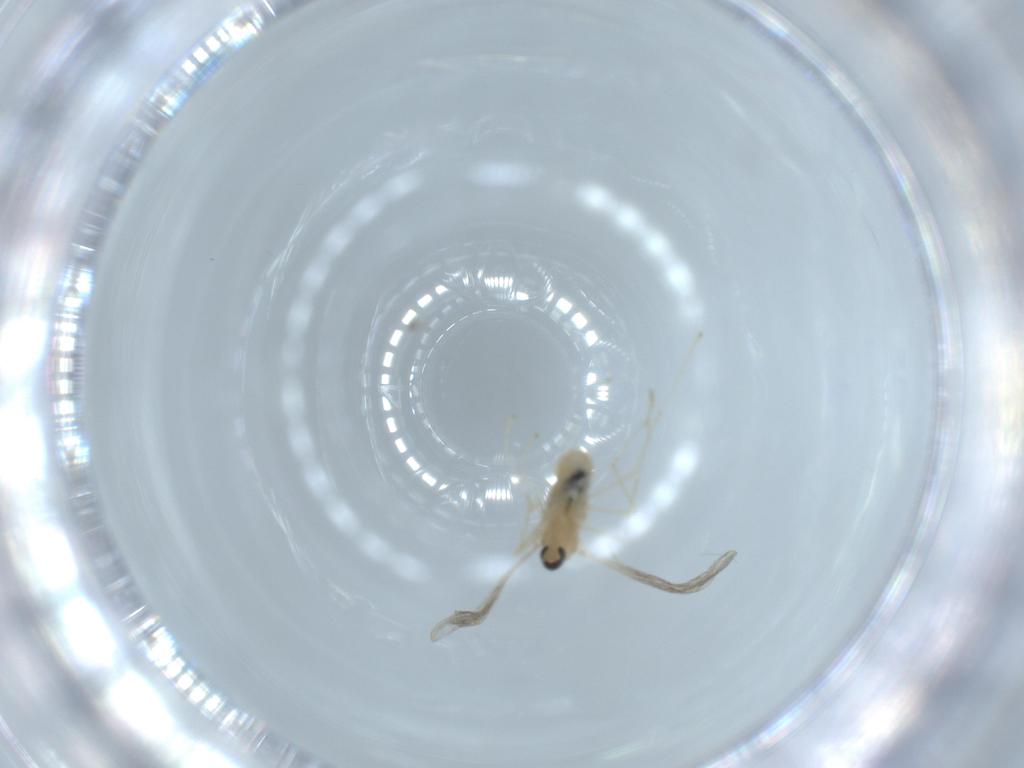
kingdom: Animalia
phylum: Arthropoda
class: Insecta
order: Diptera
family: Cecidomyiidae
